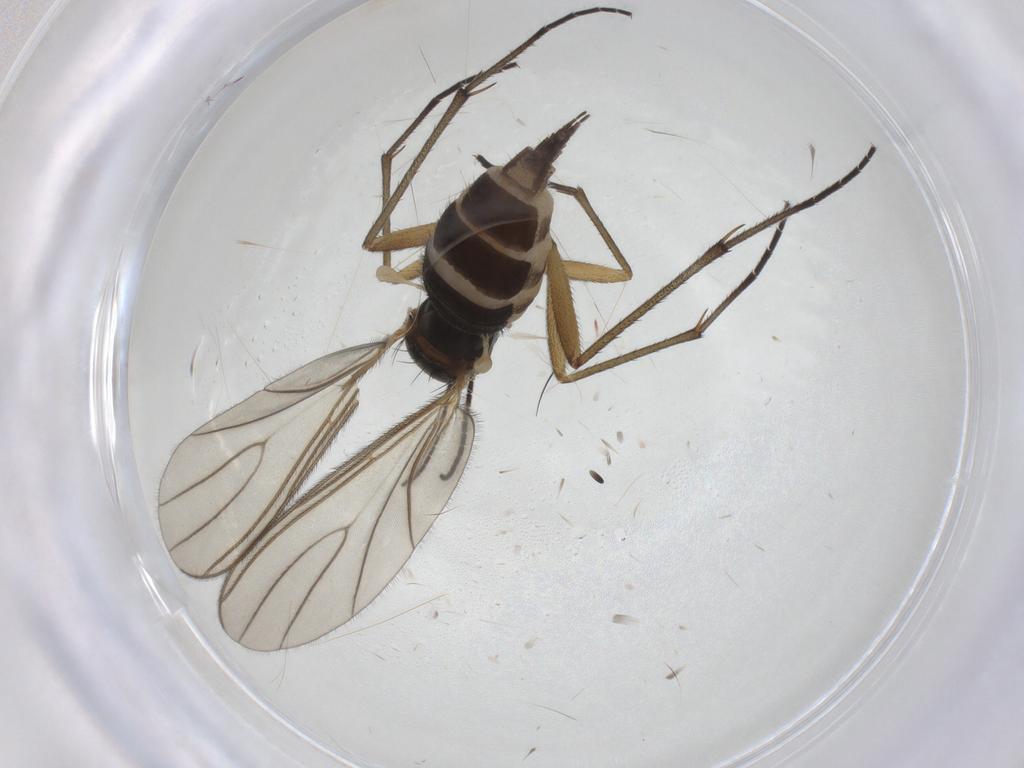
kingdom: Animalia
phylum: Arthropoda
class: Insecta
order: Diptera
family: Sciaridae
